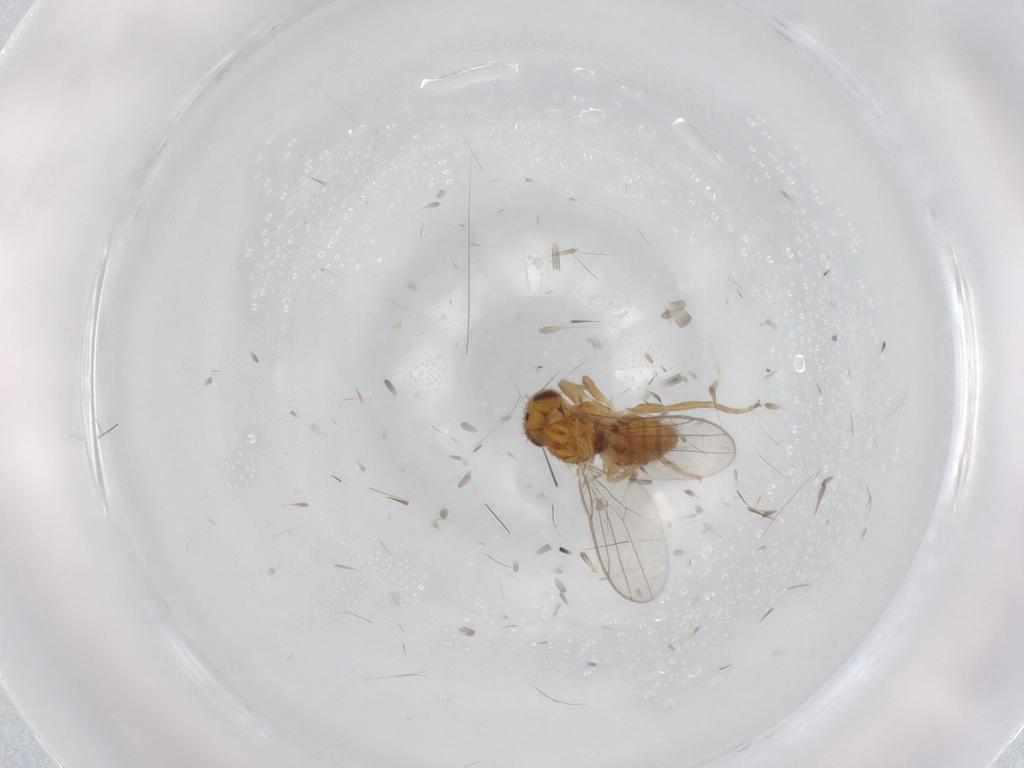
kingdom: Animalia
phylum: Arthropoda
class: Insecta
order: Diptera
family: Chloropidae
